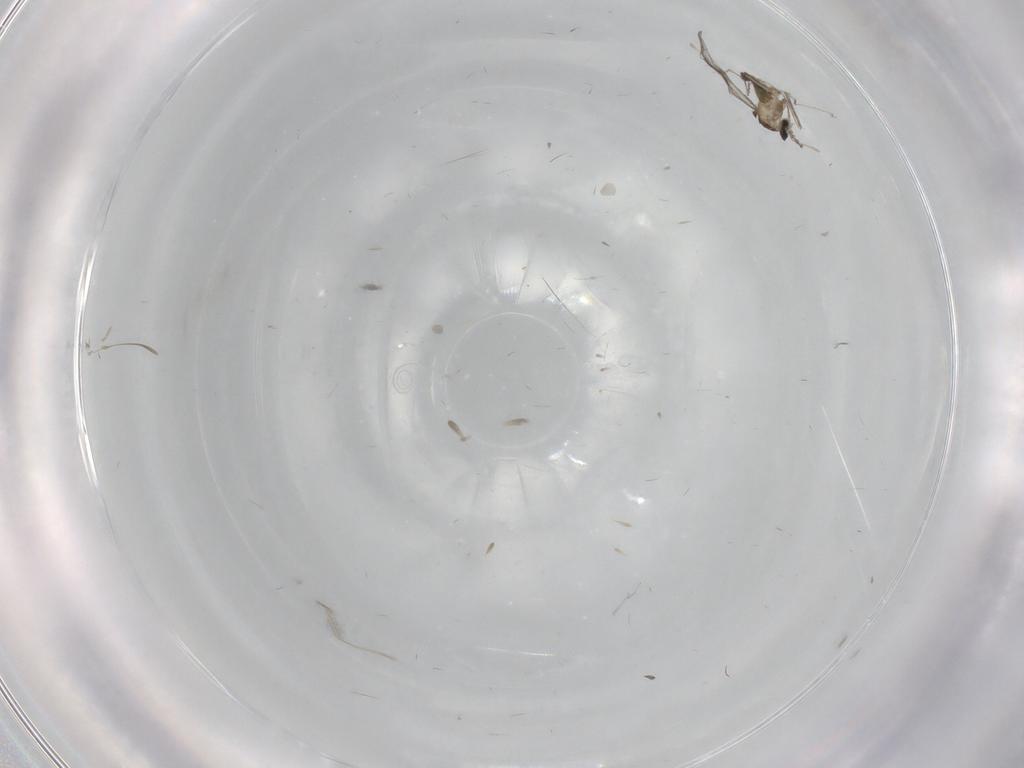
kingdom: Animalia
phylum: Arthropoda
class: Insecta
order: Diptera
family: Cecidomyiidae
